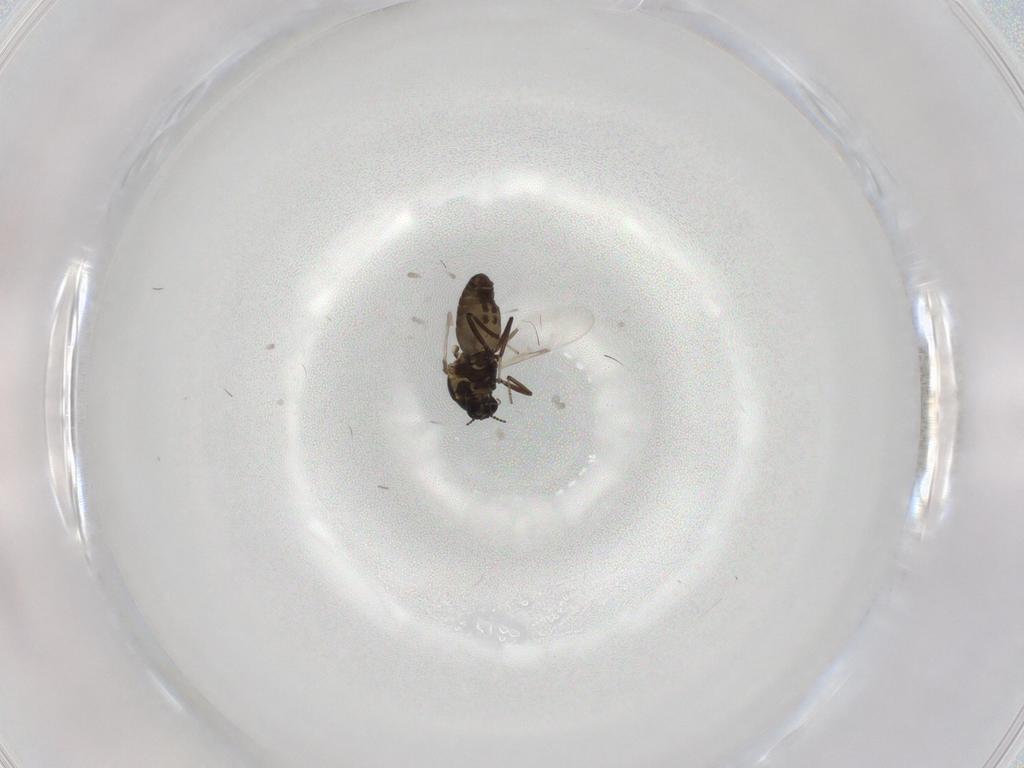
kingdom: Animalia
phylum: Arthropoda
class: Insecta
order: Diptera
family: Ceratopogonidae
